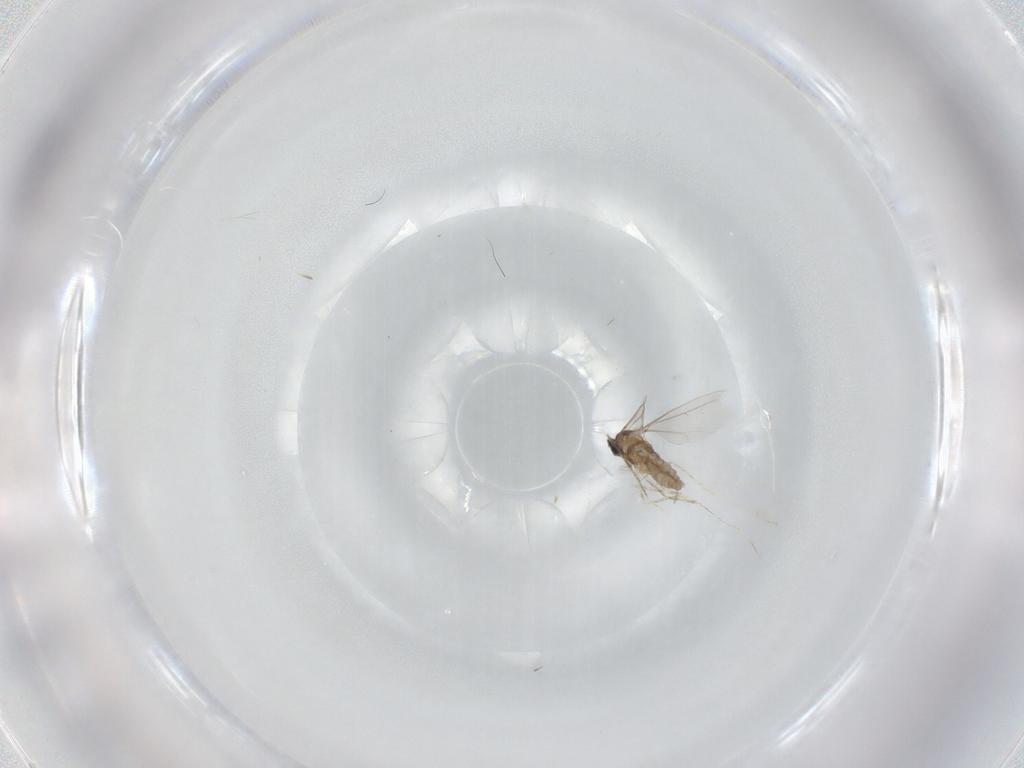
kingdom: Animalia
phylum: Arthropoda
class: Insecta
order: Diptera
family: Cecidomyiidae
